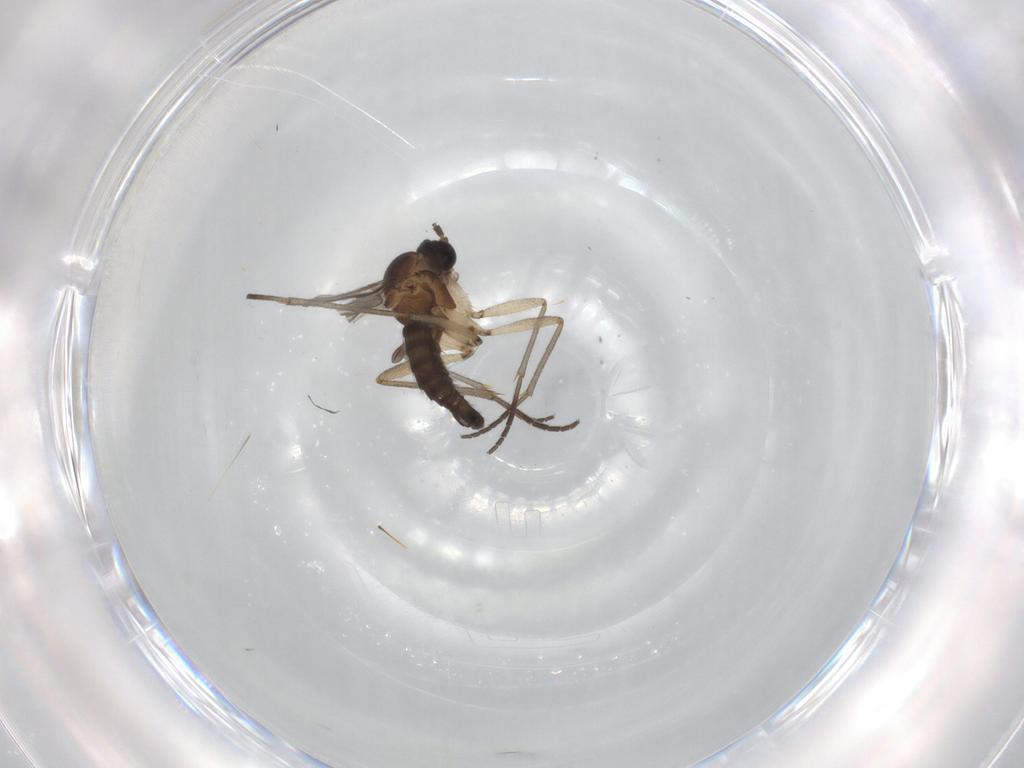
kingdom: Animalia
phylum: Arthropoda
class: Insecta
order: Diptera
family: Sciaridae
